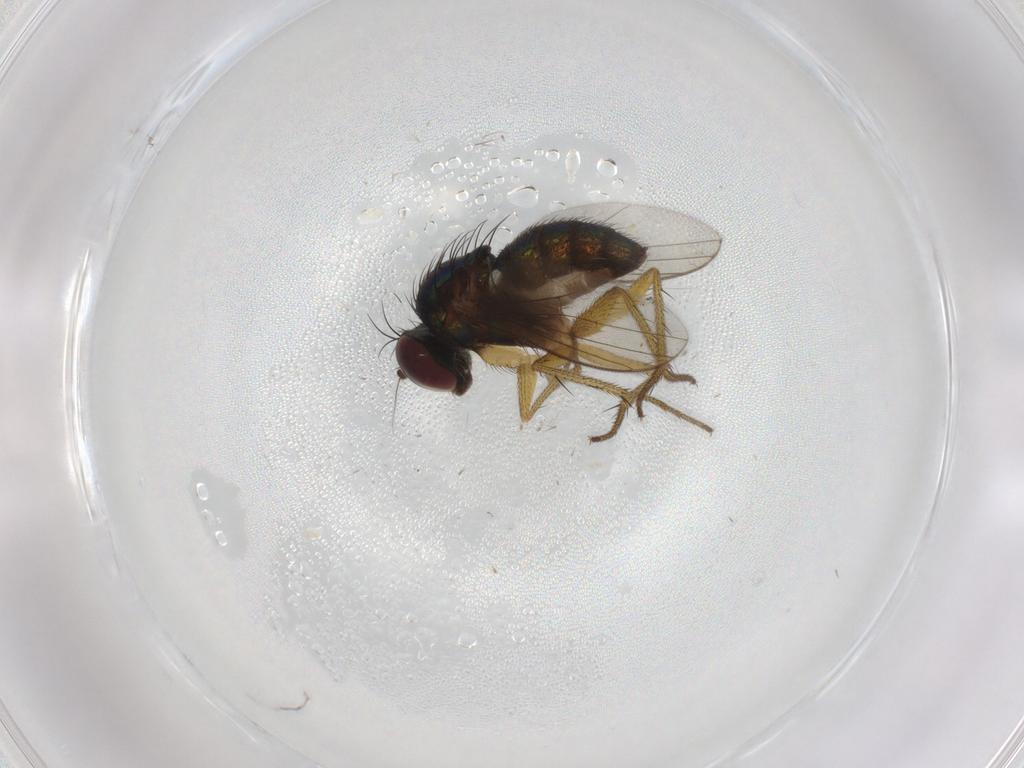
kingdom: Animalia
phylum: Arthropoda
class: Insecta
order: Diptera
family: Dolichopodidae
